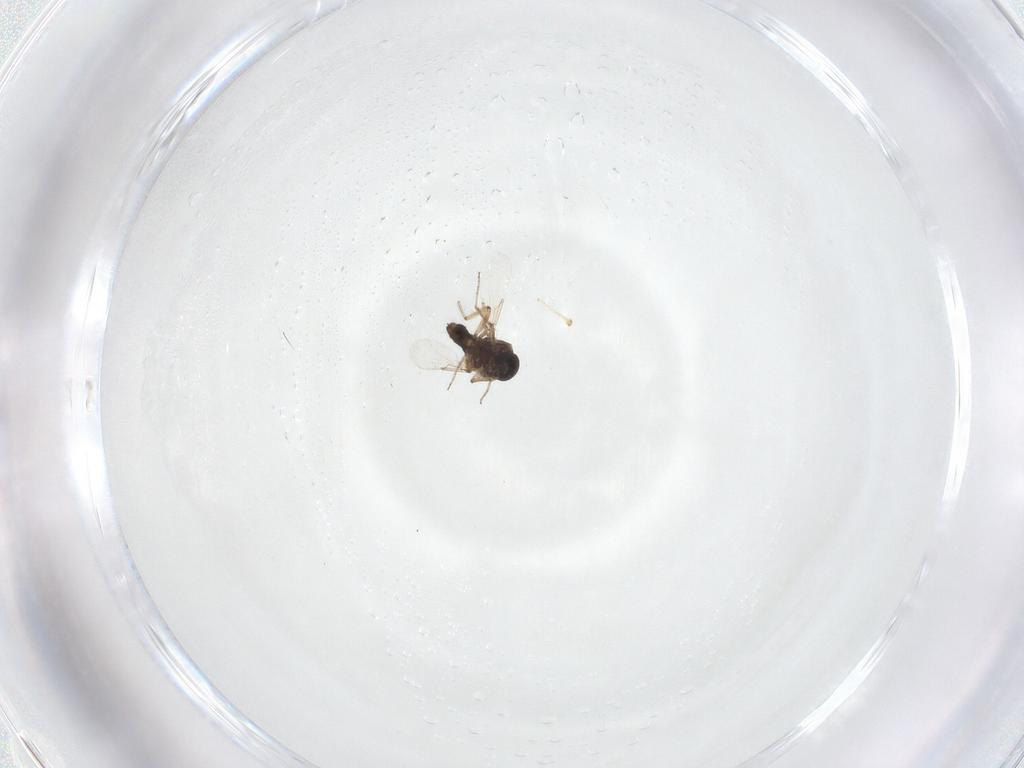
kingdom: Animalia
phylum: Arthropoda
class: Insecta
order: Diptera
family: Ceratopogonidae
